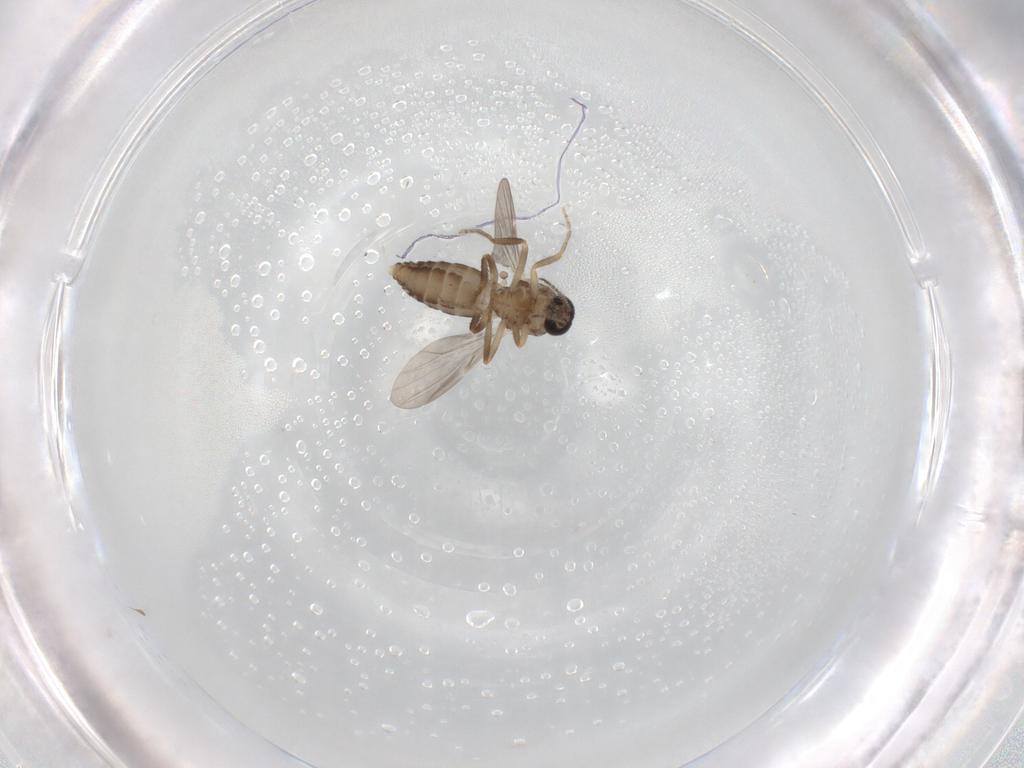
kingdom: Animalia
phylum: Arthropoda
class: Insecta
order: Diptera
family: Ceratopogonidae
